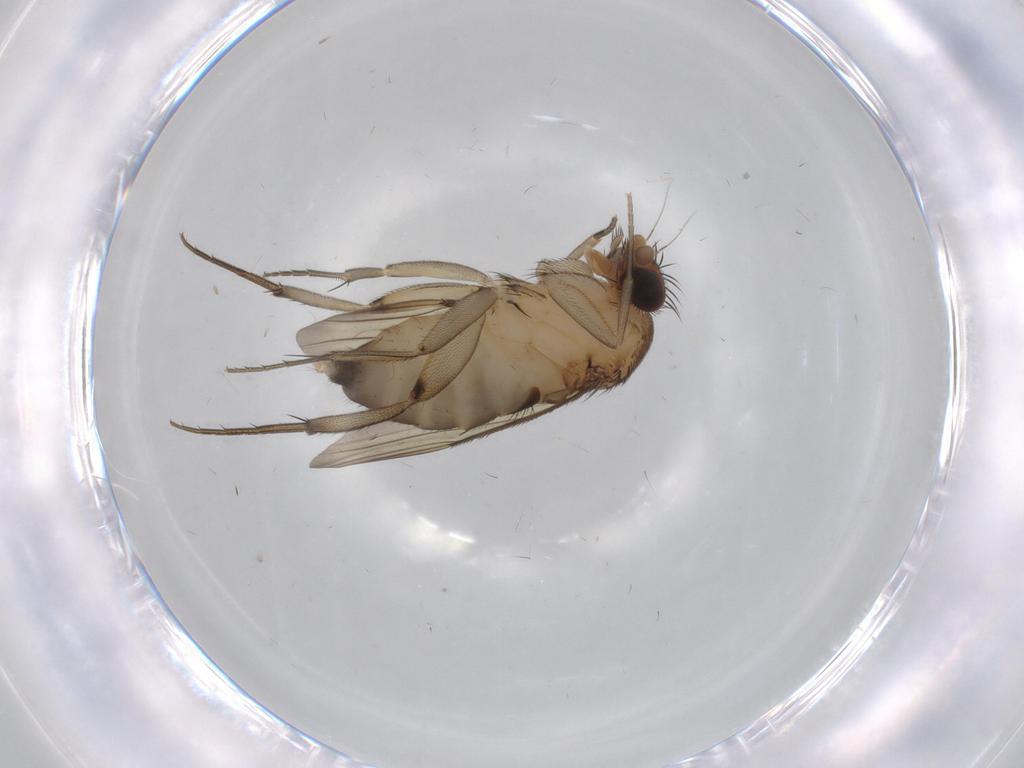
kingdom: Animalia
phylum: Arthropoda
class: Insecta
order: Diptera
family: Phoridae
